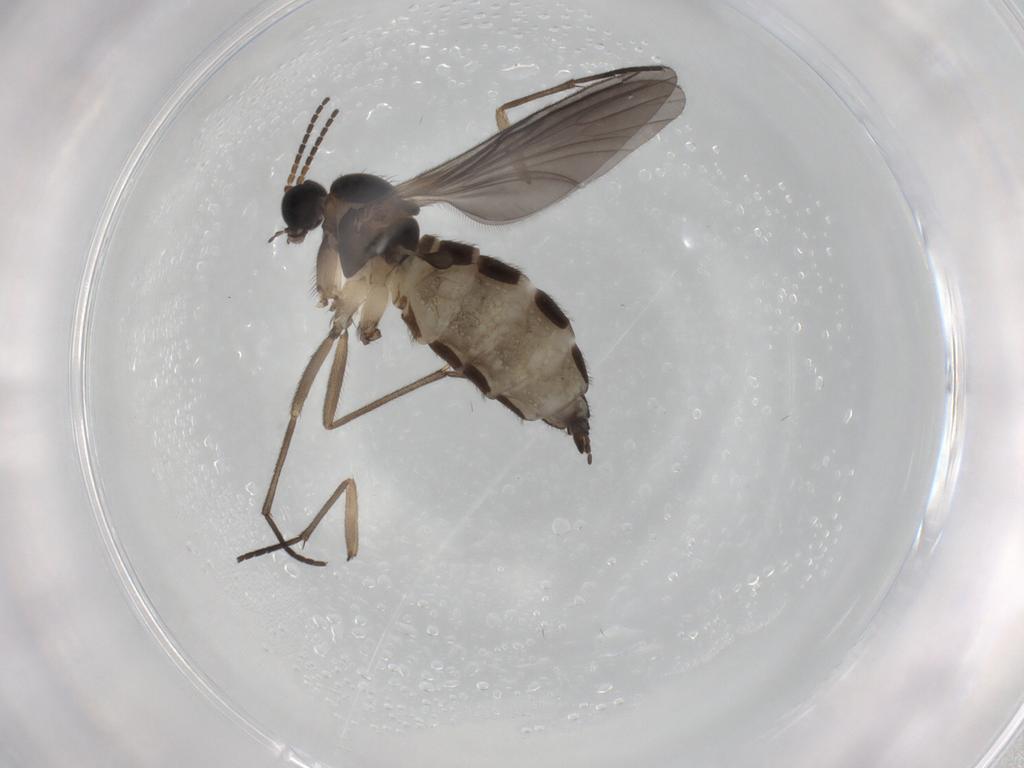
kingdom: Animalia
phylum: Arthropoda
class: Insecta
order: Diptera
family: Sciaridae
